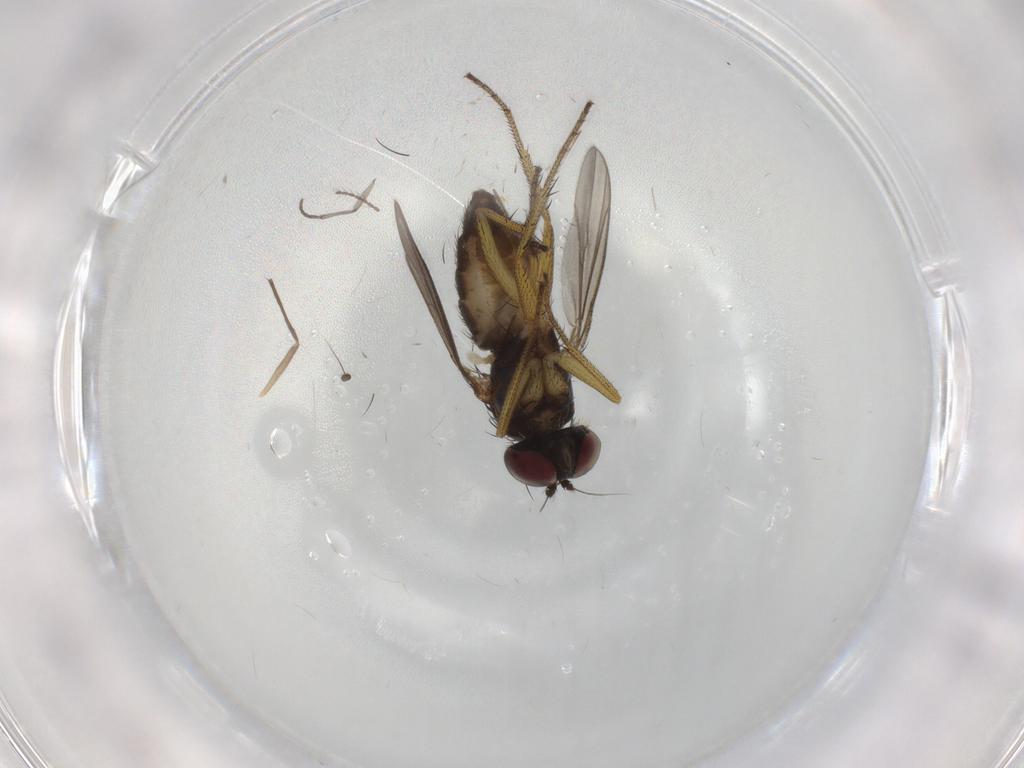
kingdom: Animalia
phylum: Arthropoda
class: Insecta
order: Diptera
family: Sciaridae
